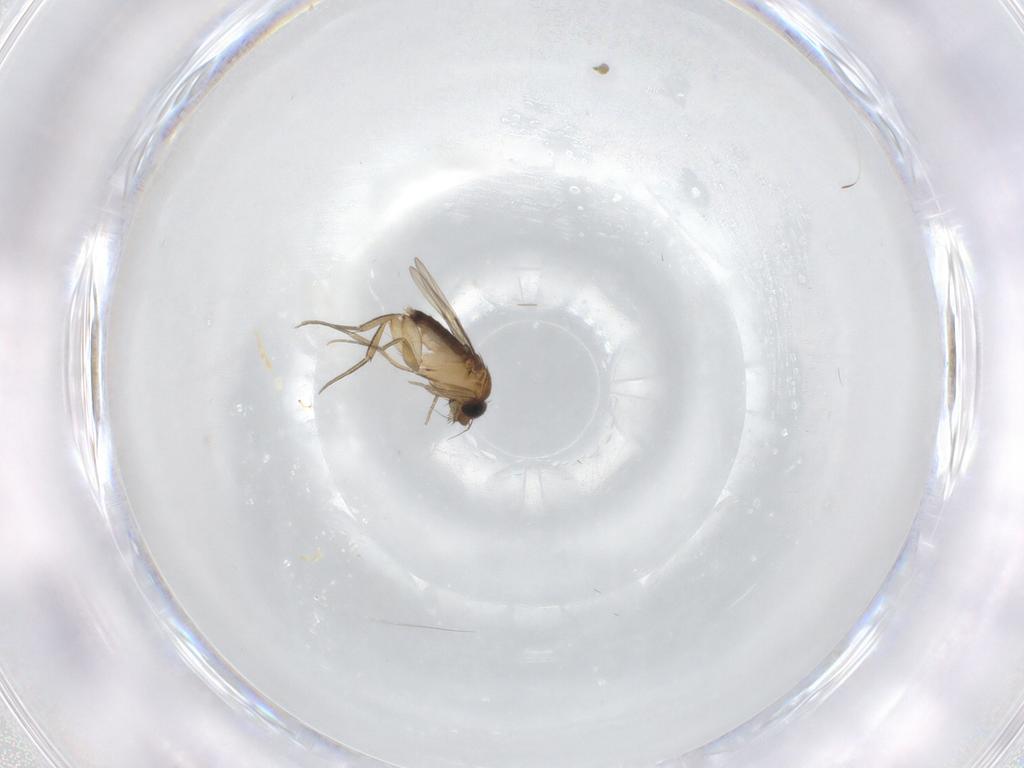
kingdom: Animalia
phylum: Arthropoda
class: Insecta
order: Diptera
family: Phoridae
